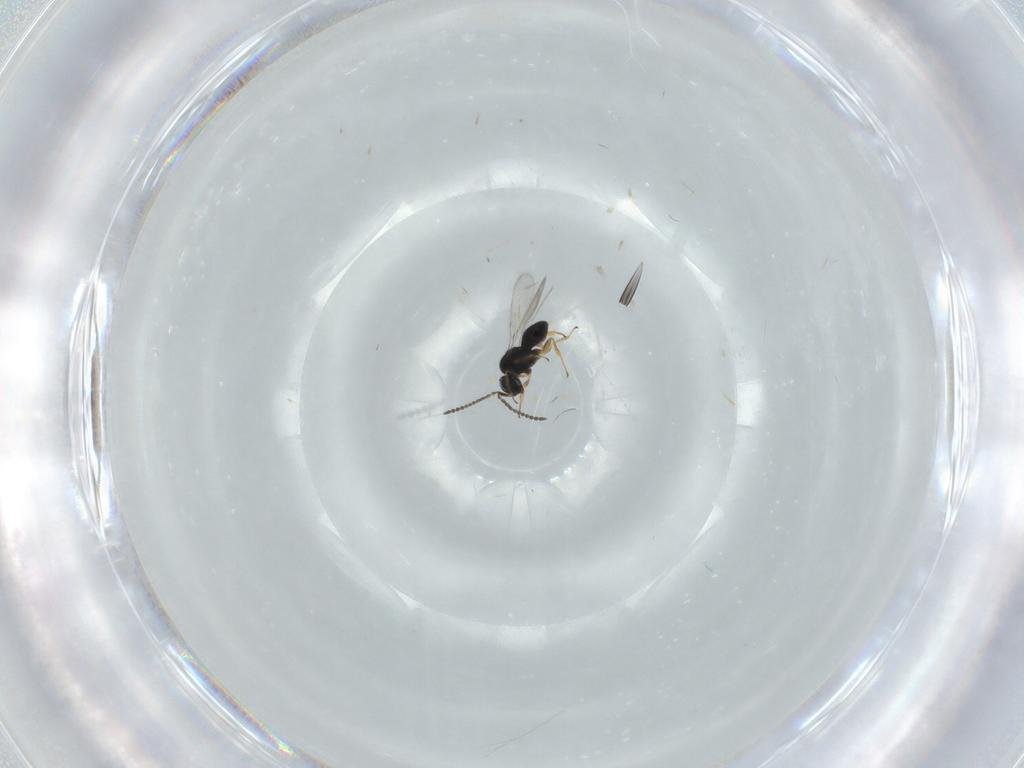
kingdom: Animalia
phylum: Arthropoda
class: Insecta
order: Hymenoptera
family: Scelionidae
